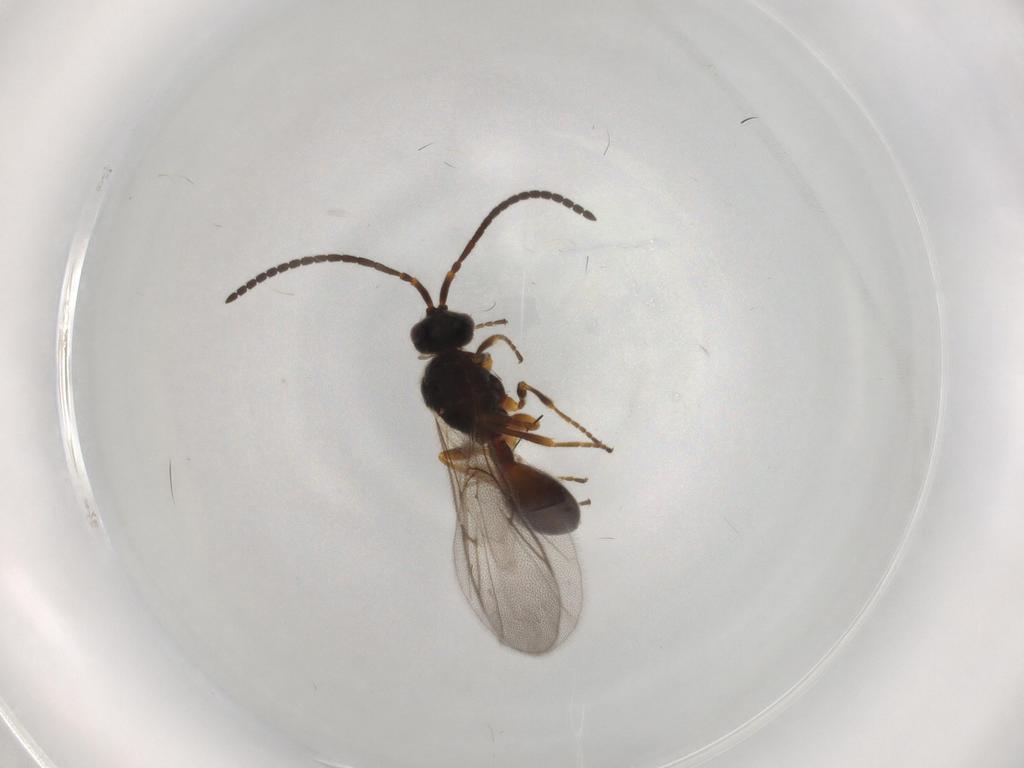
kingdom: Animalia
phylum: Arthropoda
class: Insecta
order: Hymenoptera
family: Diapriidae
